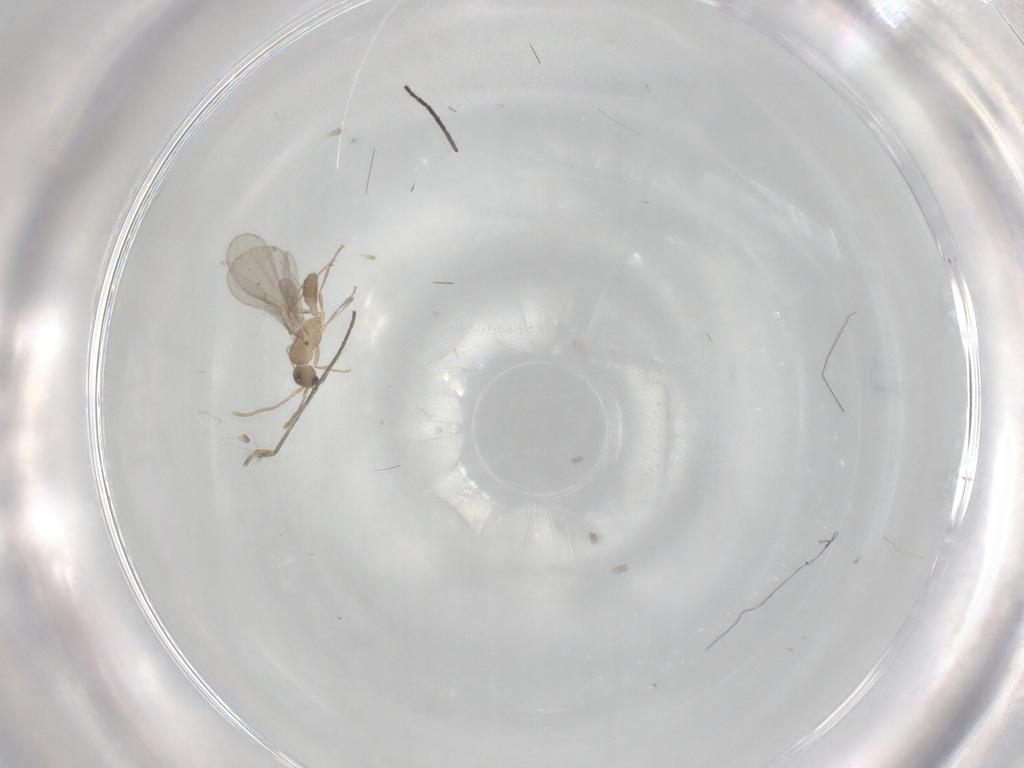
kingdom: Animalia
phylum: Arthropoda
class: Insecta
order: Hymenoptera
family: Formicidae
